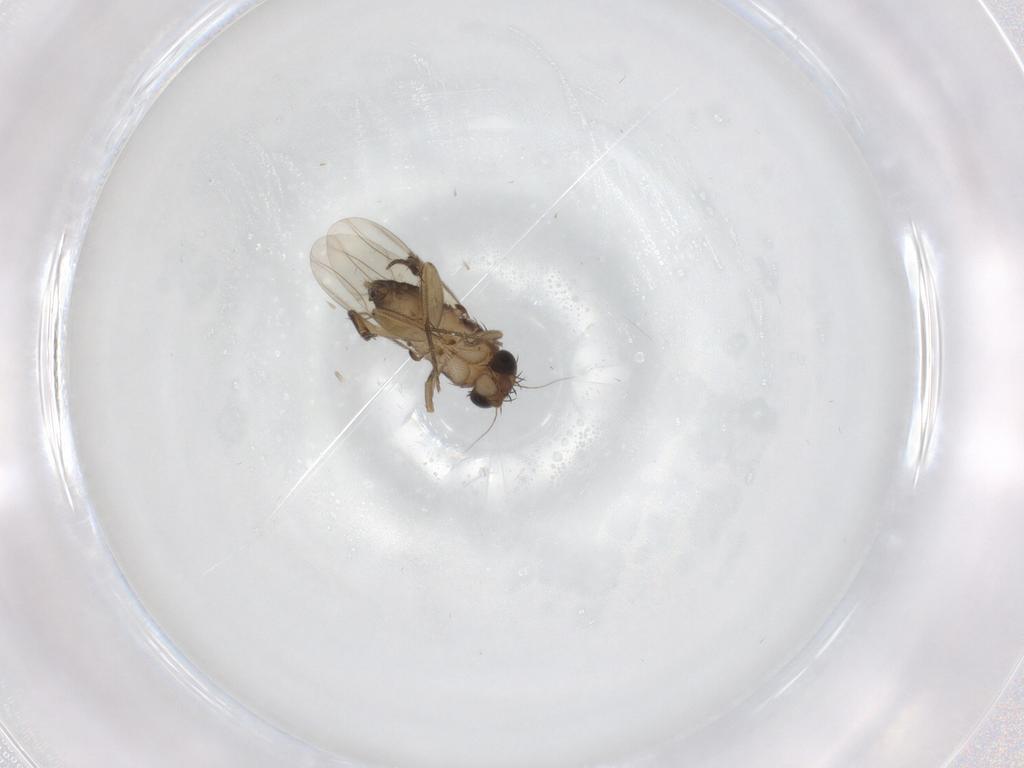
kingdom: Animalia
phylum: Arthropoda
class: Insecta
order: Diptera
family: Phoridae
